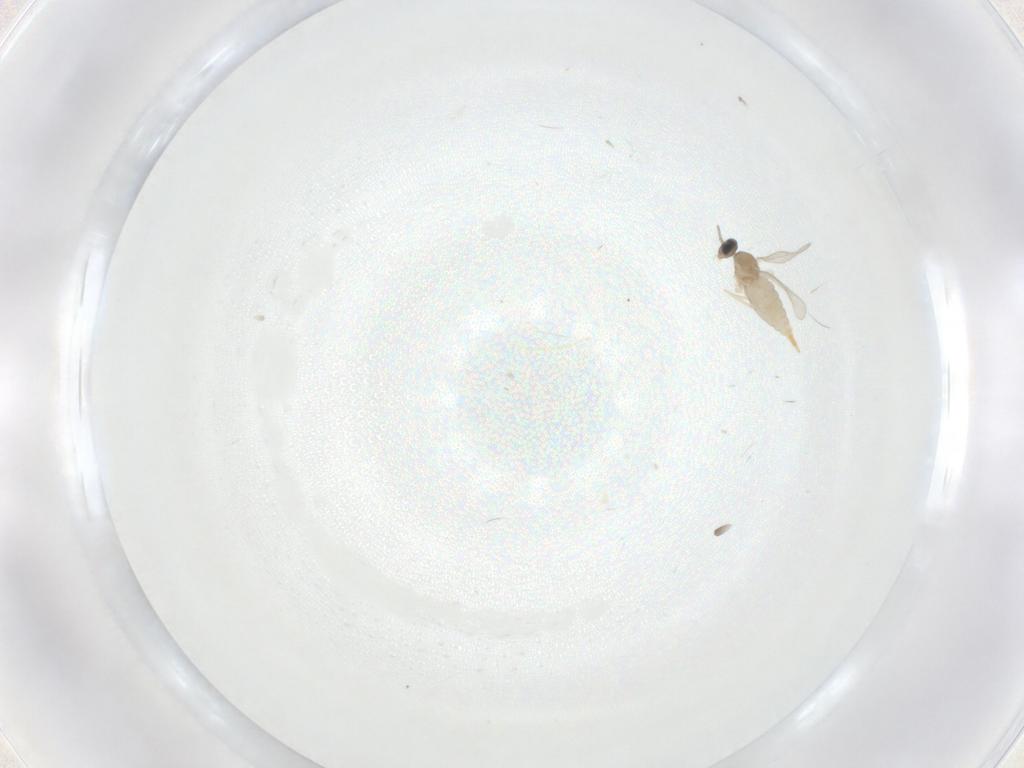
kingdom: Animalia
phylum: Arthropoda
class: Insecta
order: Diptera
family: Cecidomyiidae
